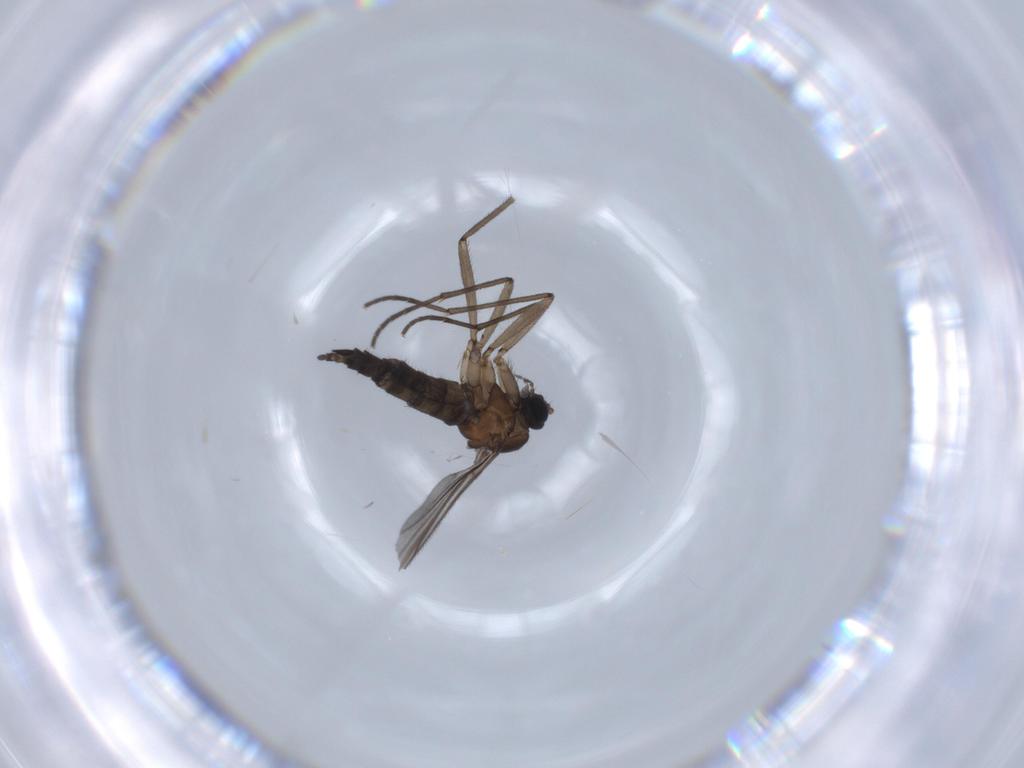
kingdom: Animalia
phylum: Arthropoda
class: Insecta
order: Diptera
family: Sciaridae
